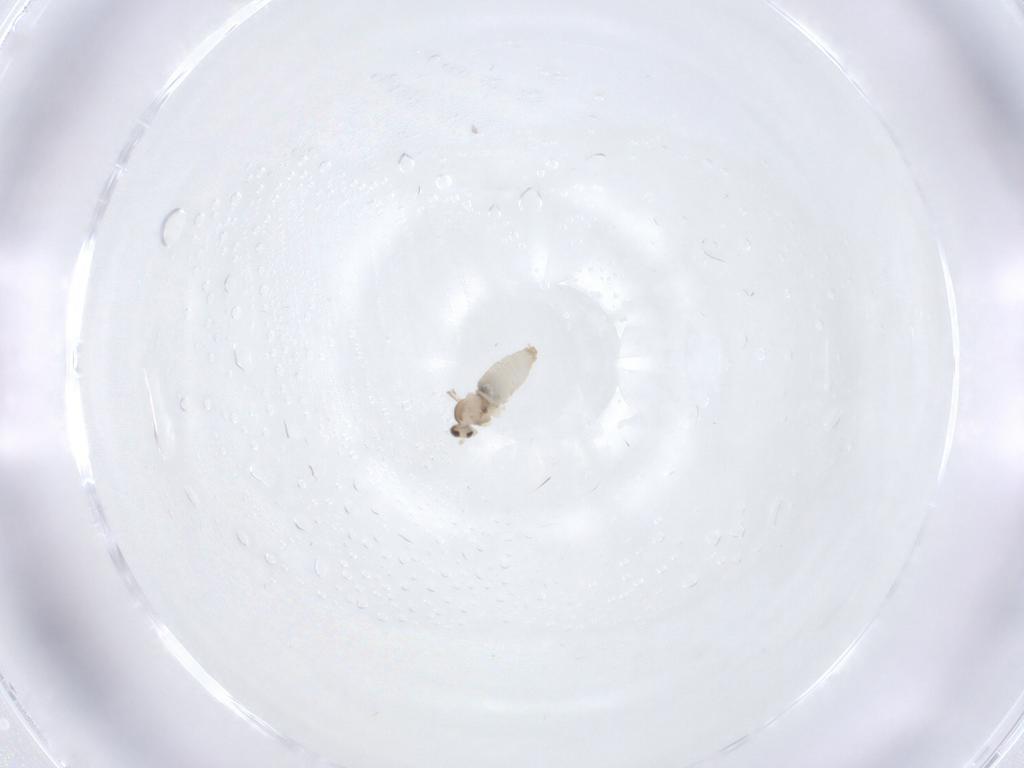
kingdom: Animalia
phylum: Arthropoda
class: Insecta
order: Diptera
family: Cecidomyiidae
